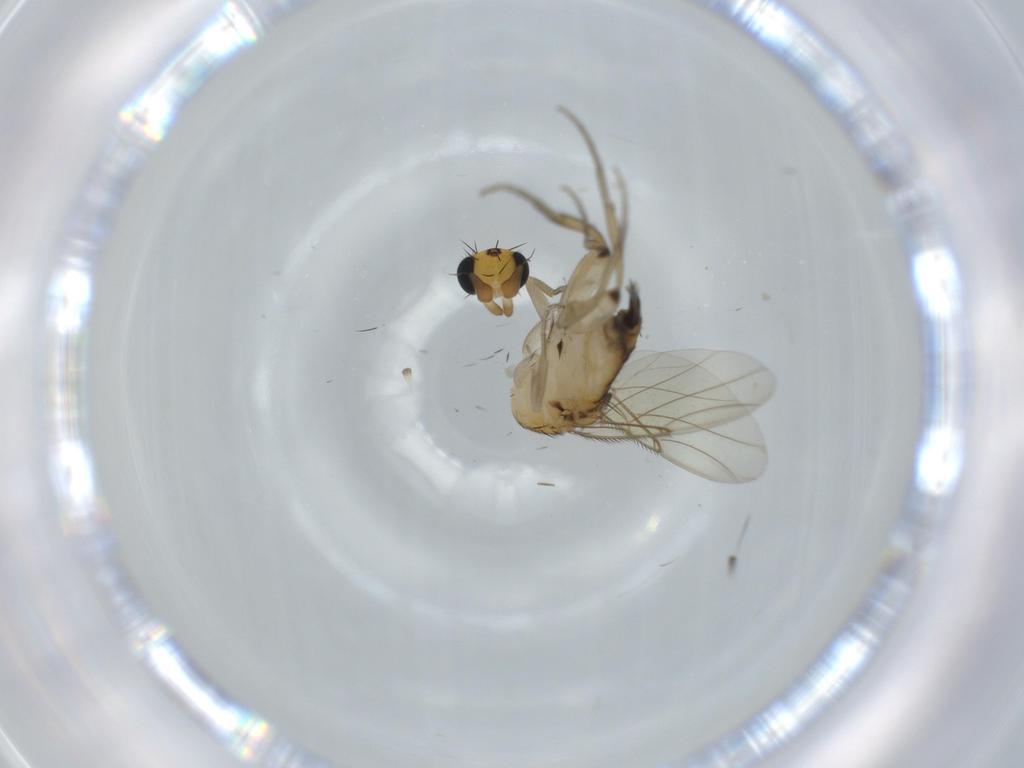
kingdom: Animalia
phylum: Arthropoda
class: Insecta
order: Diptera
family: Phoridae
